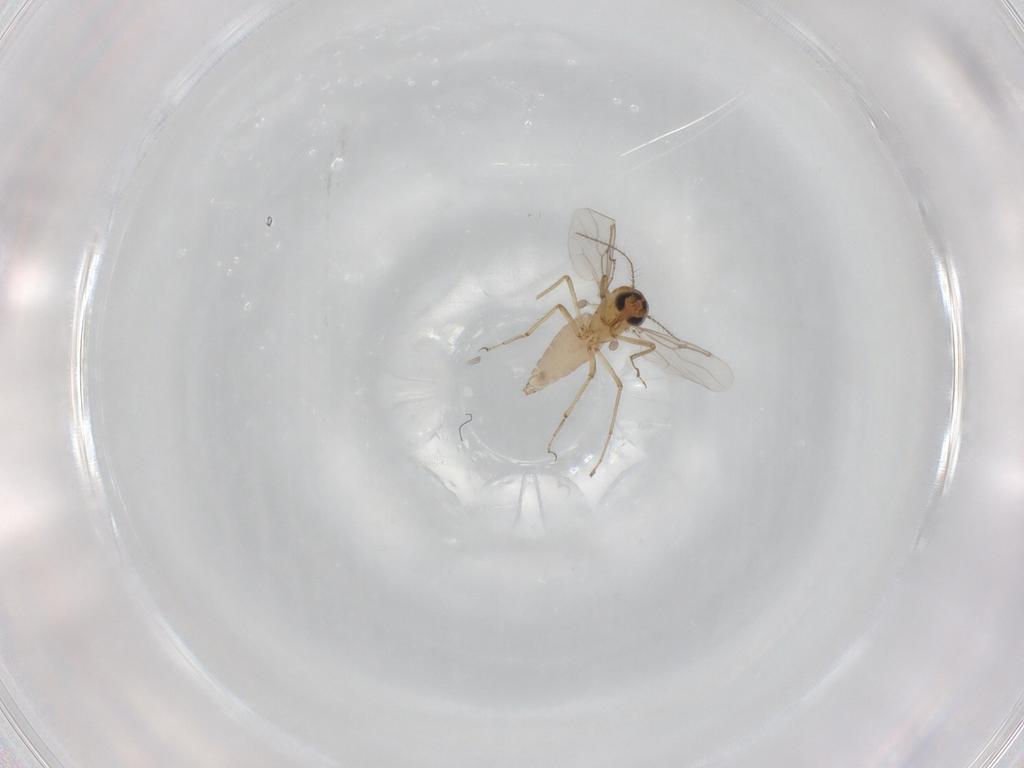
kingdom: Animalia
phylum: Arthropoda
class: Insecta
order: Diptera
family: Ceratopogonidae
